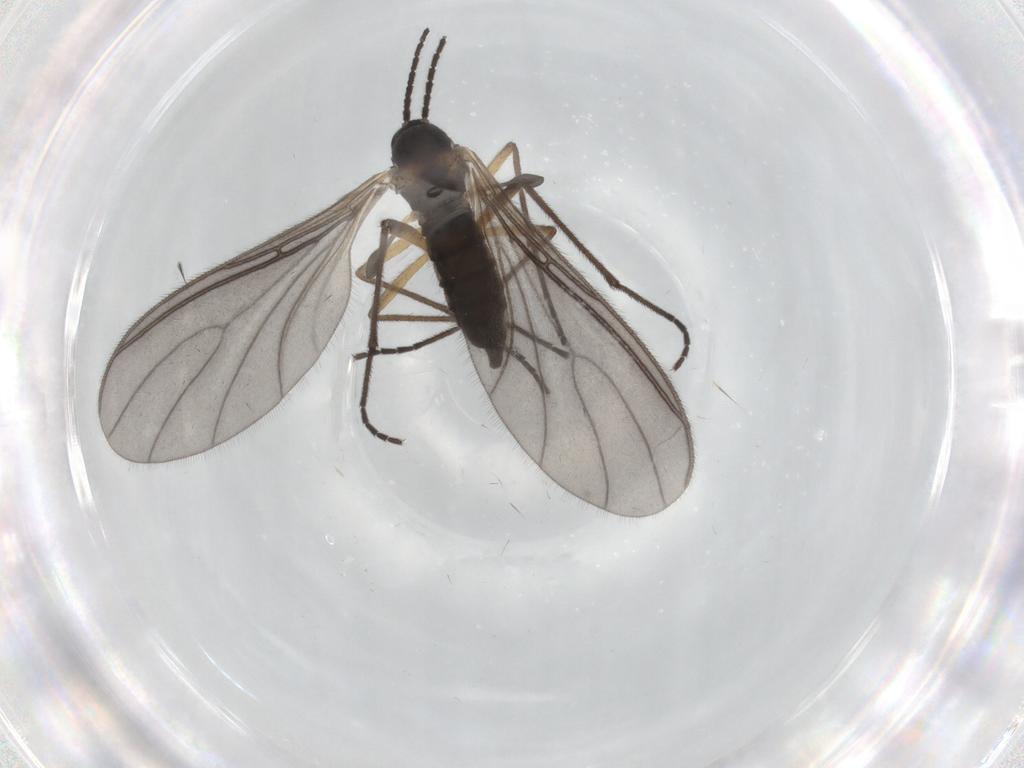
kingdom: Animalia
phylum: Arthropoda
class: Insecta
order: Diptera
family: Sciaridae
